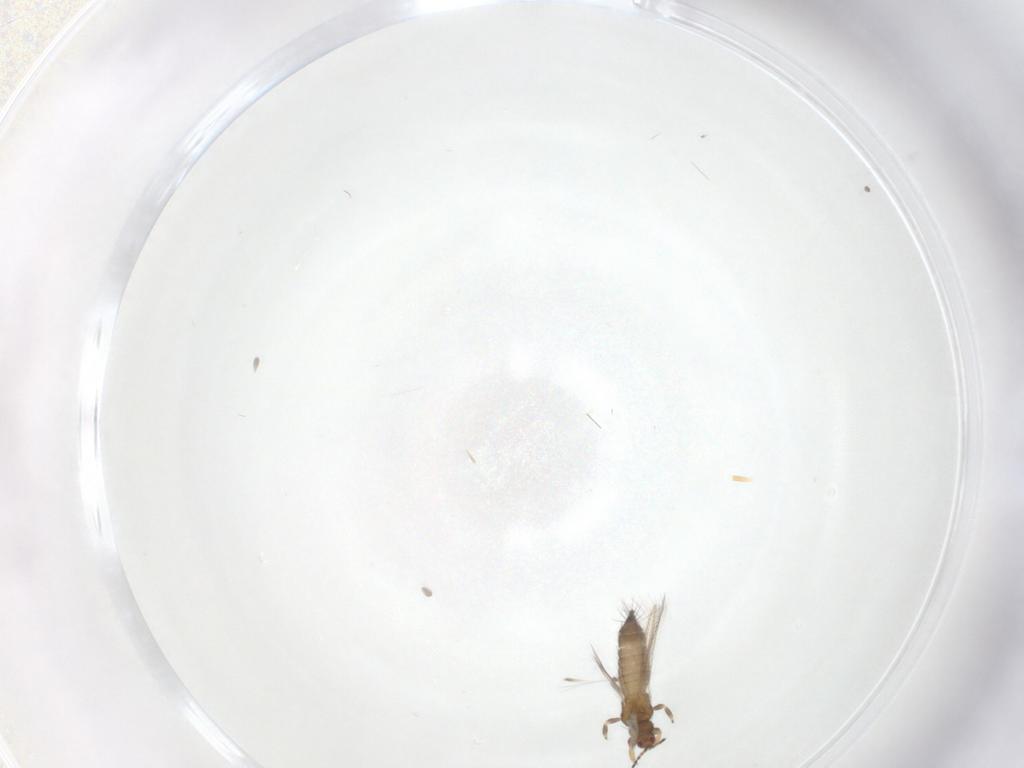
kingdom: Animalia
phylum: Arthropoda
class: Insecta
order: Thysanoptera
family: Thripidae
